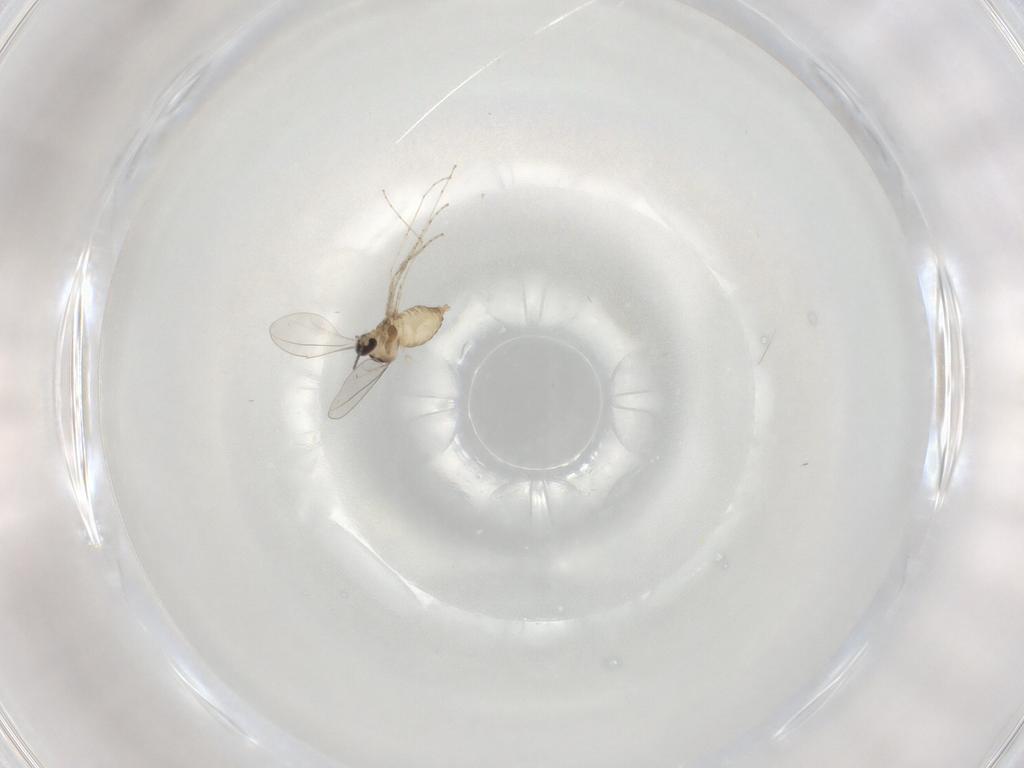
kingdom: Animalia
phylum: Arthropoda
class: Insecta
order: Diptera
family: Cecidomyiidae
